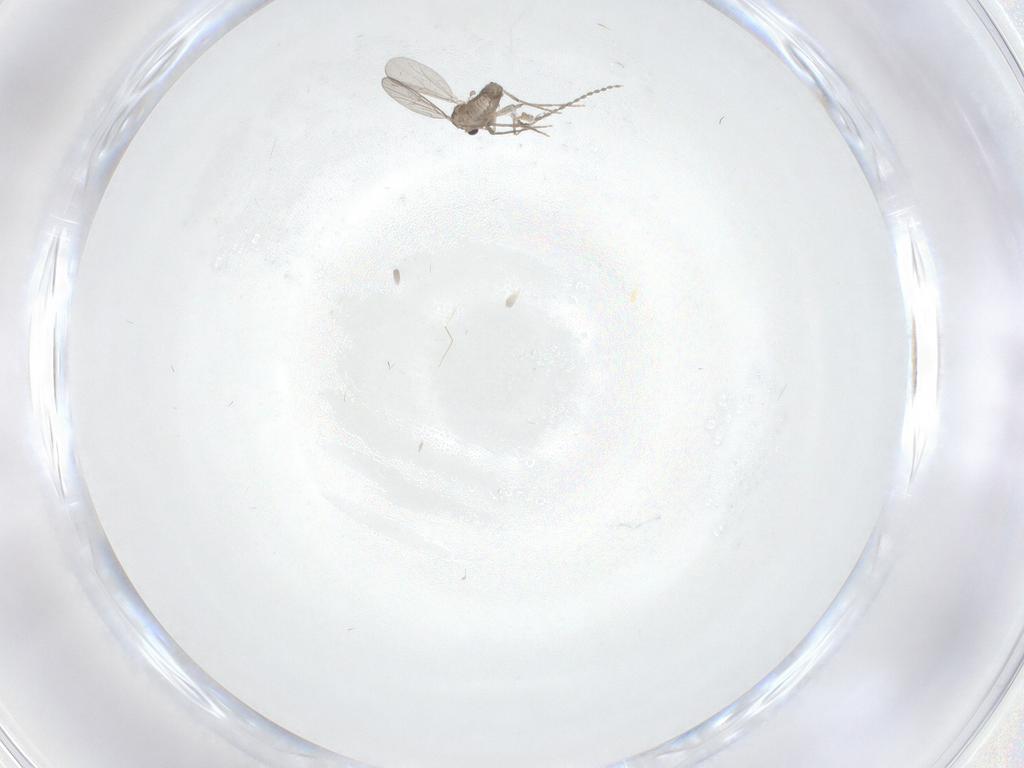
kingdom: Animalia
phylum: Arthropoda
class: Insecta
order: Diptera
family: Chironomidae
